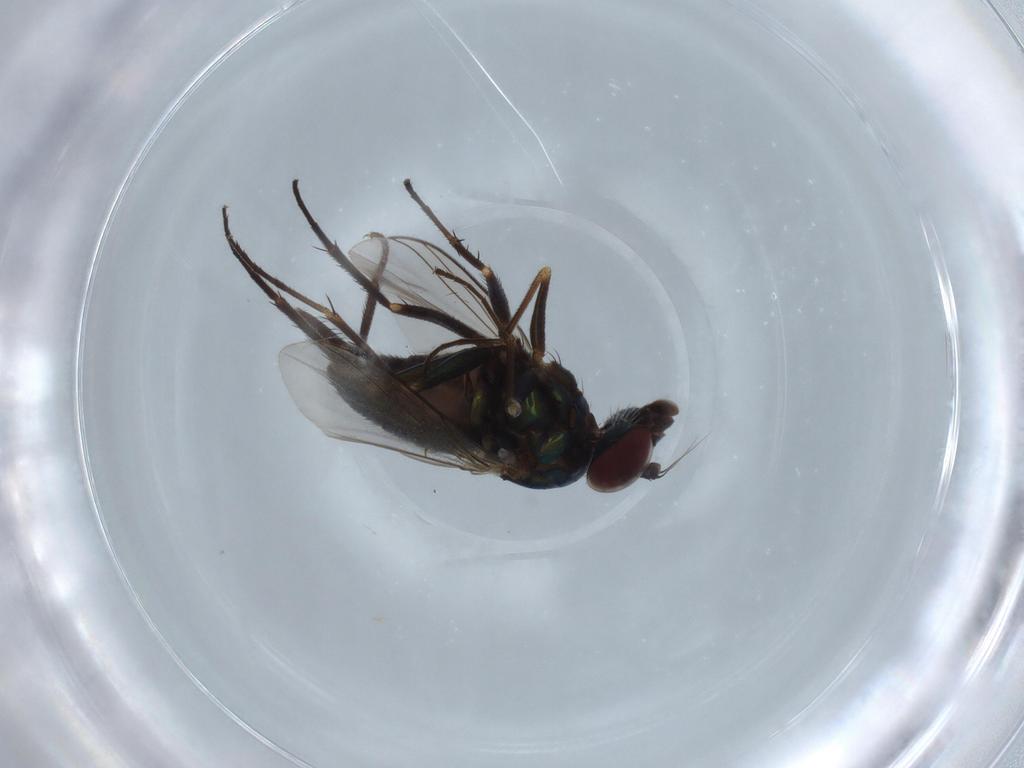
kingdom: Animalia
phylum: Arthropoda
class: Insecta
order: Diptera
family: Dolichopodidae
